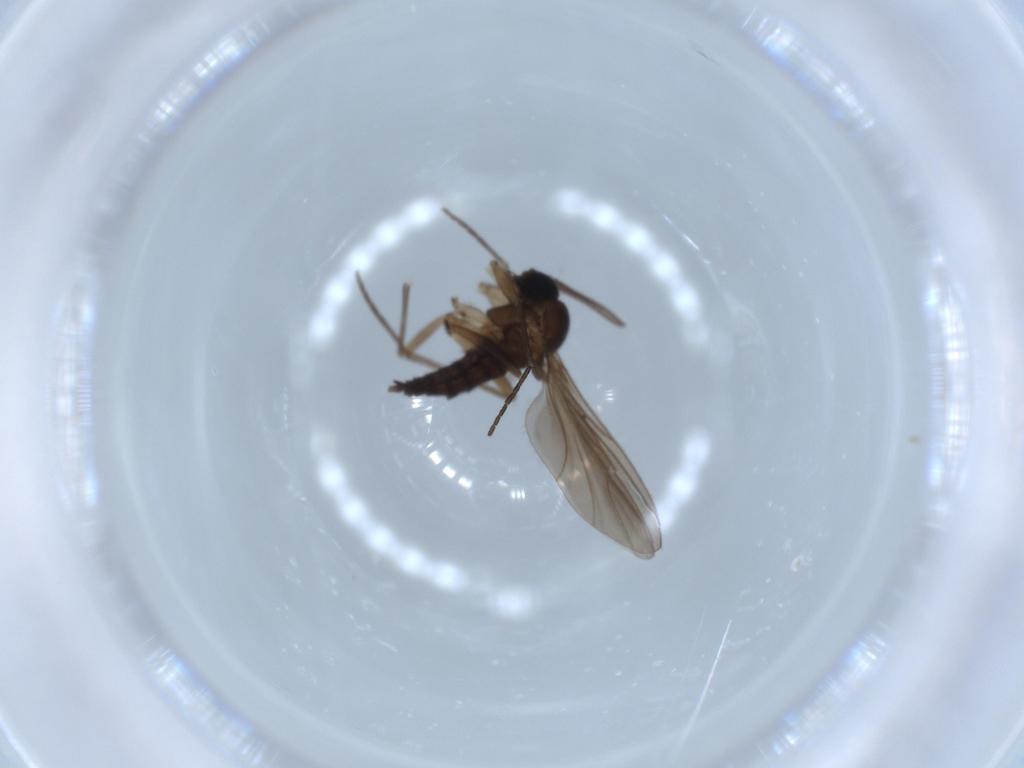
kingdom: Animalia
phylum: Arthropoda
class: Insecta
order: Diptera
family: Sciaridae
